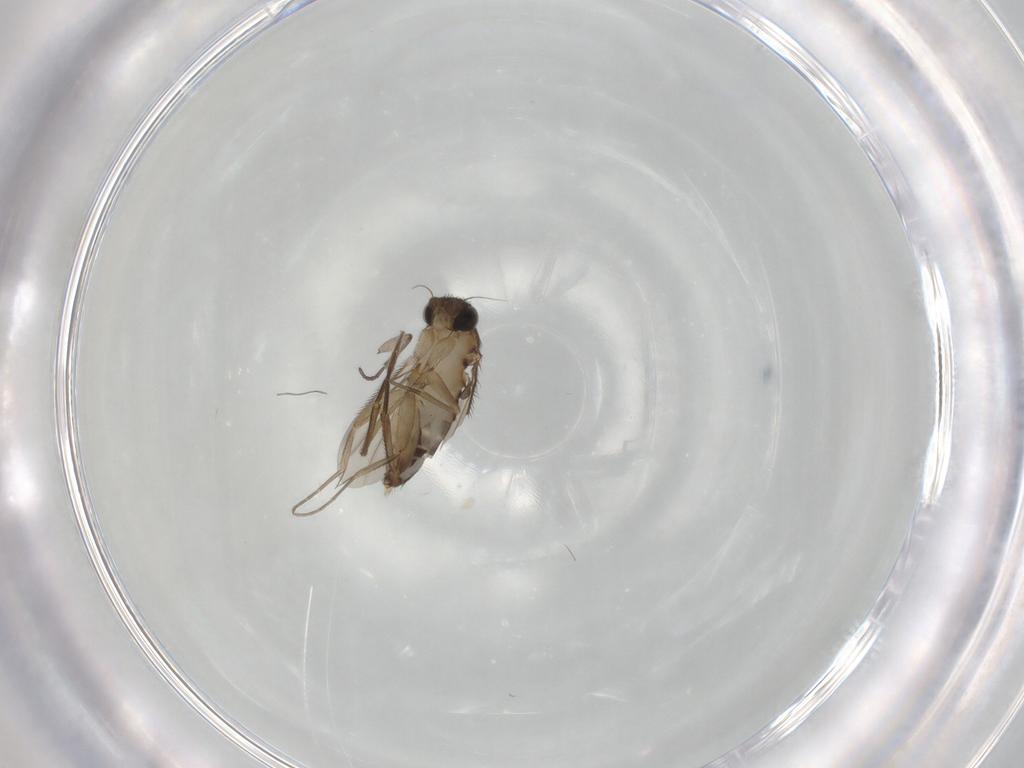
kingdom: Animalia
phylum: Arthropoda
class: Insecta
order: Diptera
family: Phoridae
